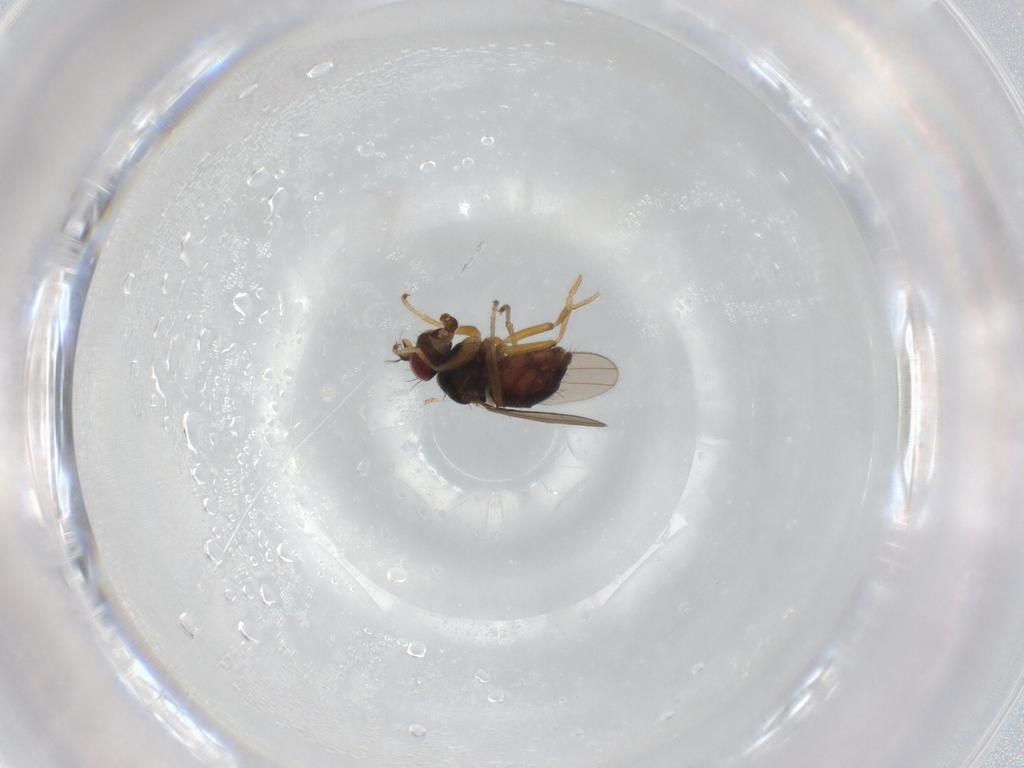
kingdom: Animalia
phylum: Arthropoda
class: Insecta
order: Diptera
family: Ephydridae
